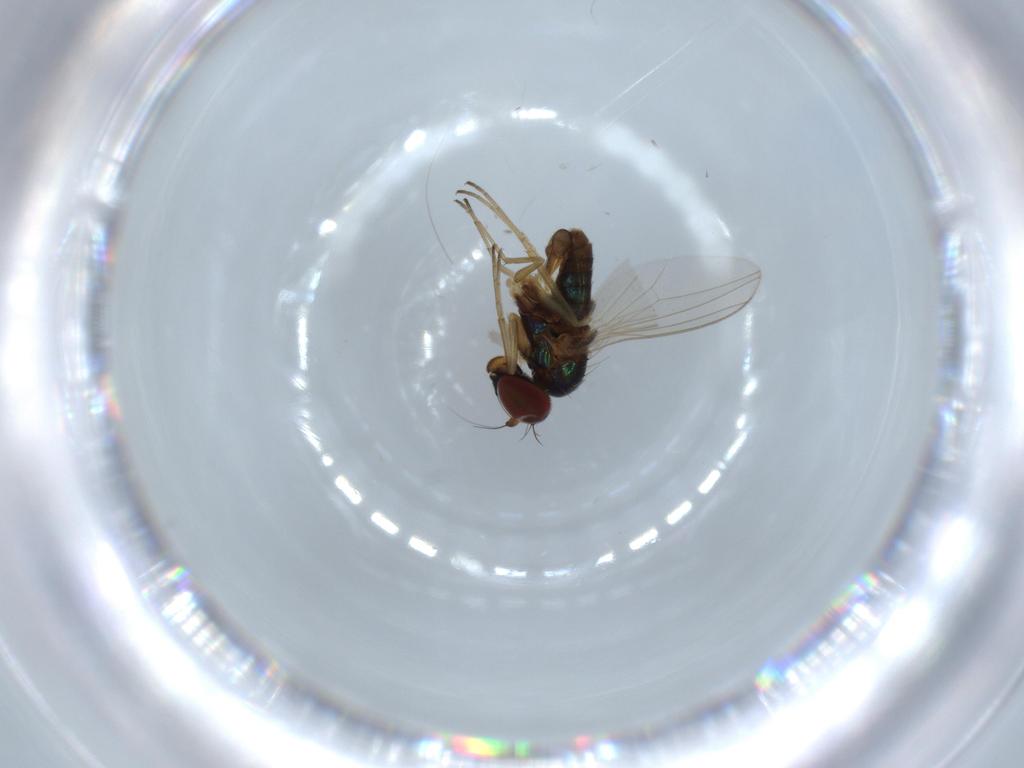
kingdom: Animalia
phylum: Arthropoda
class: Insecta
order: Diptera
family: Dolichopodidae
